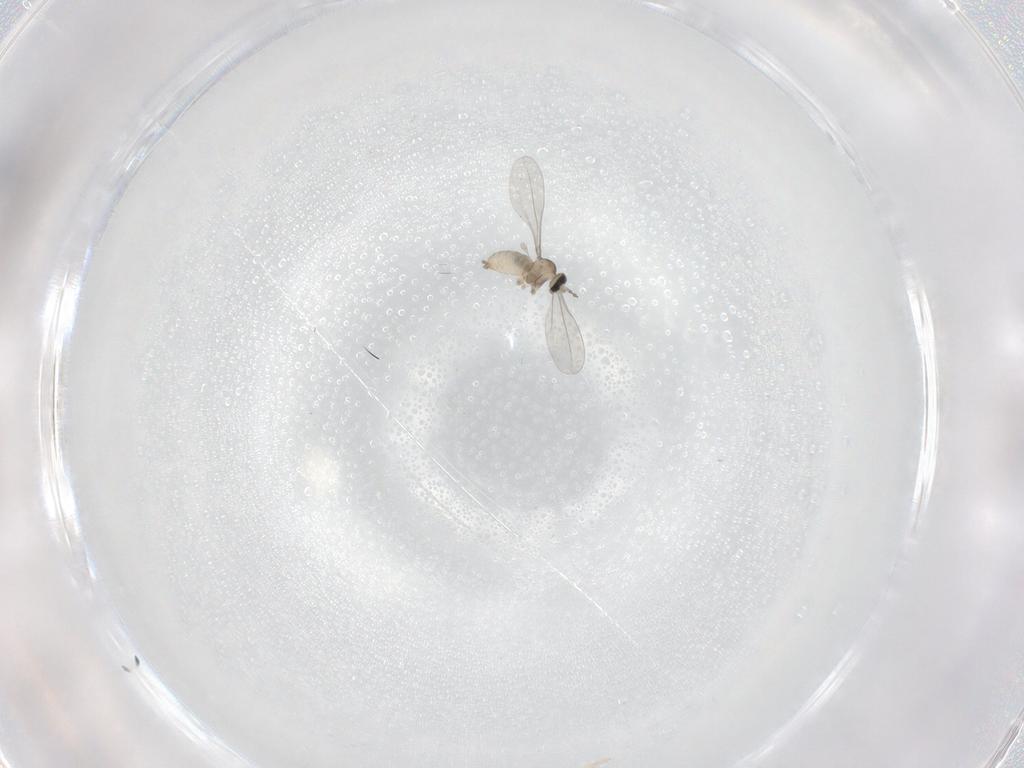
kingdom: Animalia
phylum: Arthropoda
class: Insecta
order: Diptera
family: Cecidomyiidae
